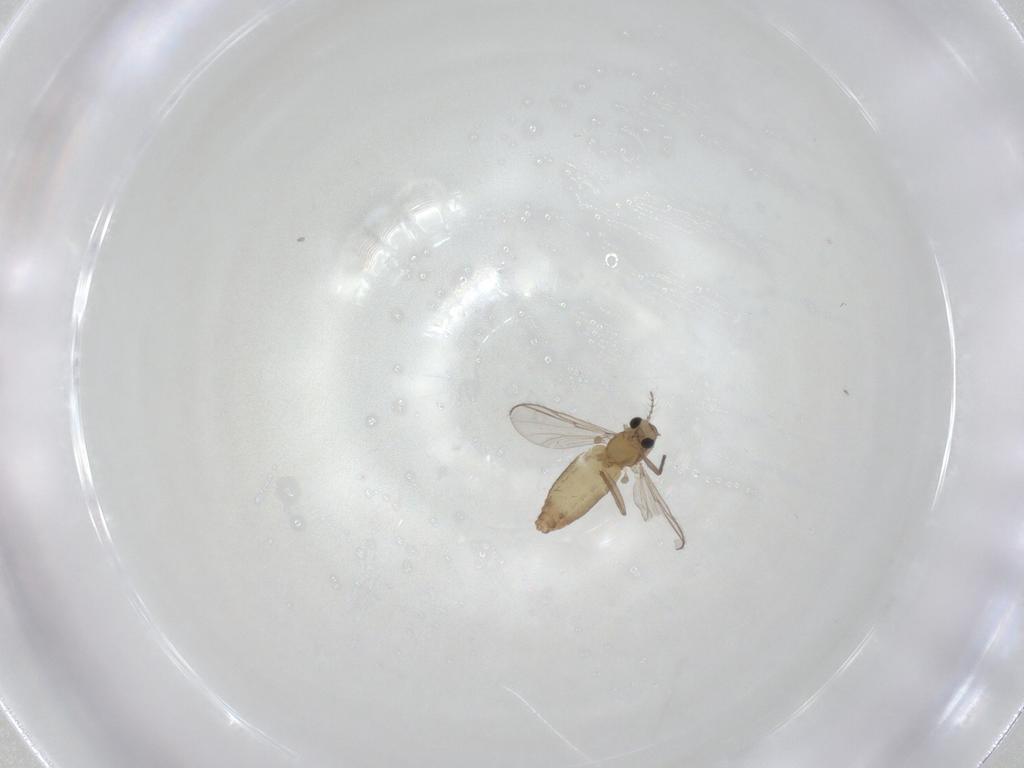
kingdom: Animalia
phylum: Arthropoda
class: Insecta
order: Diptera
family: Chironomidae
